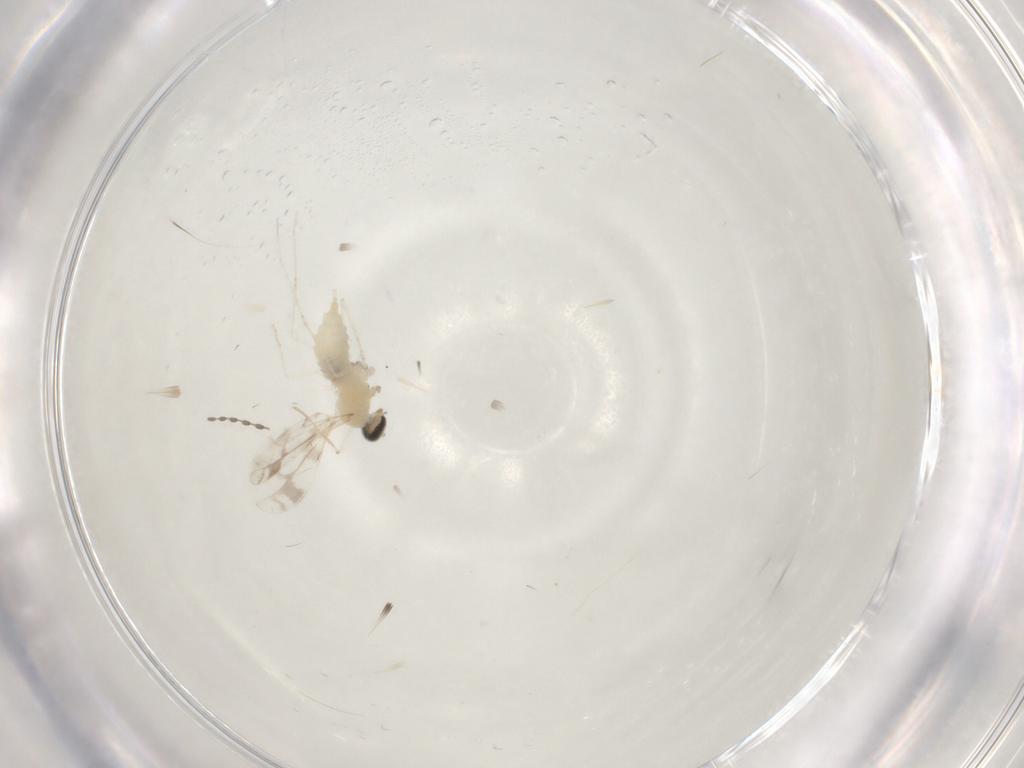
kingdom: Animalia
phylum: Arthropoda
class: Insecta
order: Diptera
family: Cecidomyiidae
